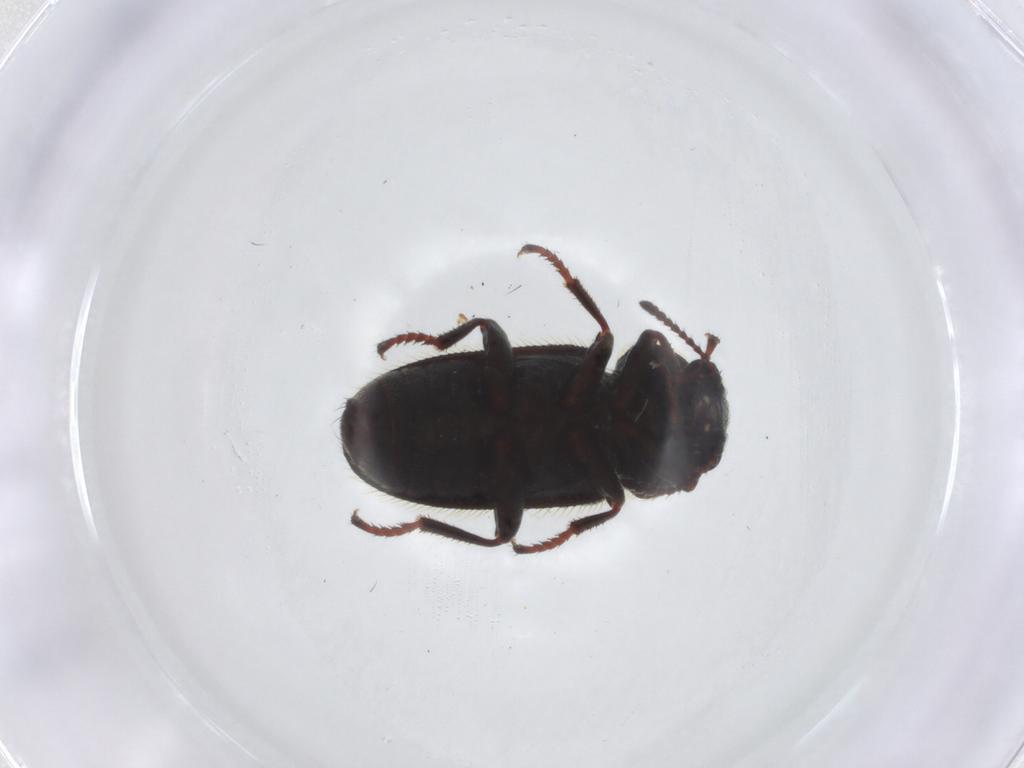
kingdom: Animalia
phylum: Arthropoda
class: Insecta
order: Coleoptera
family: Dasytidae
